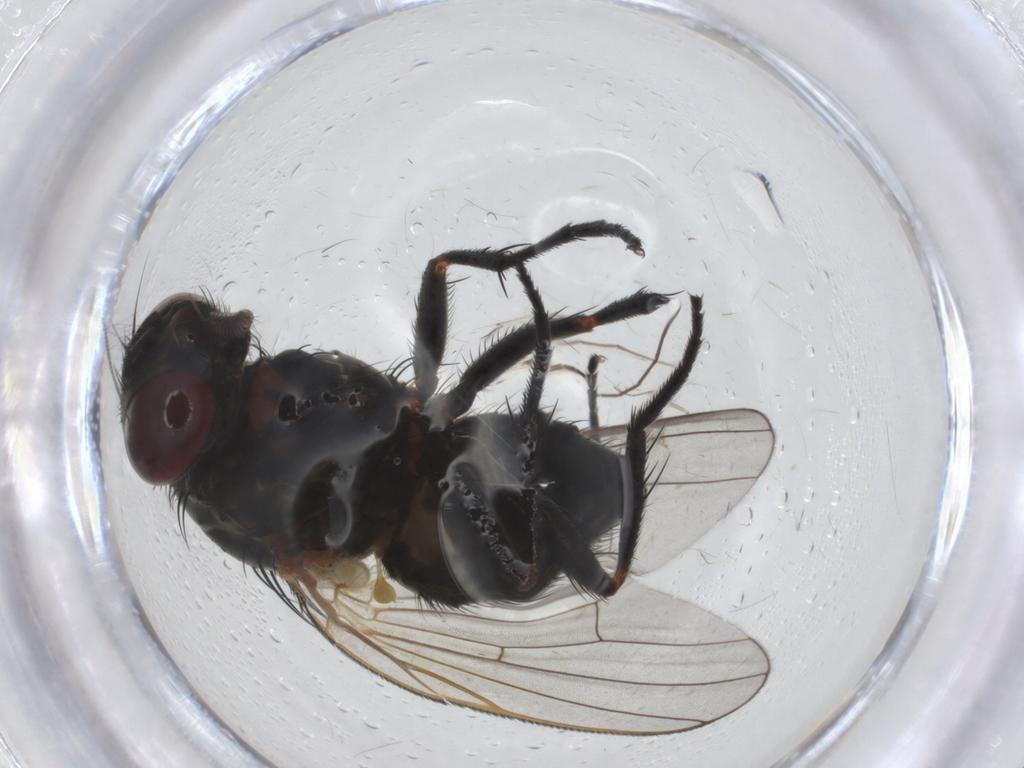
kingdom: Animalia
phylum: Arthropoda
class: Insecta
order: Diptera
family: Fannia
